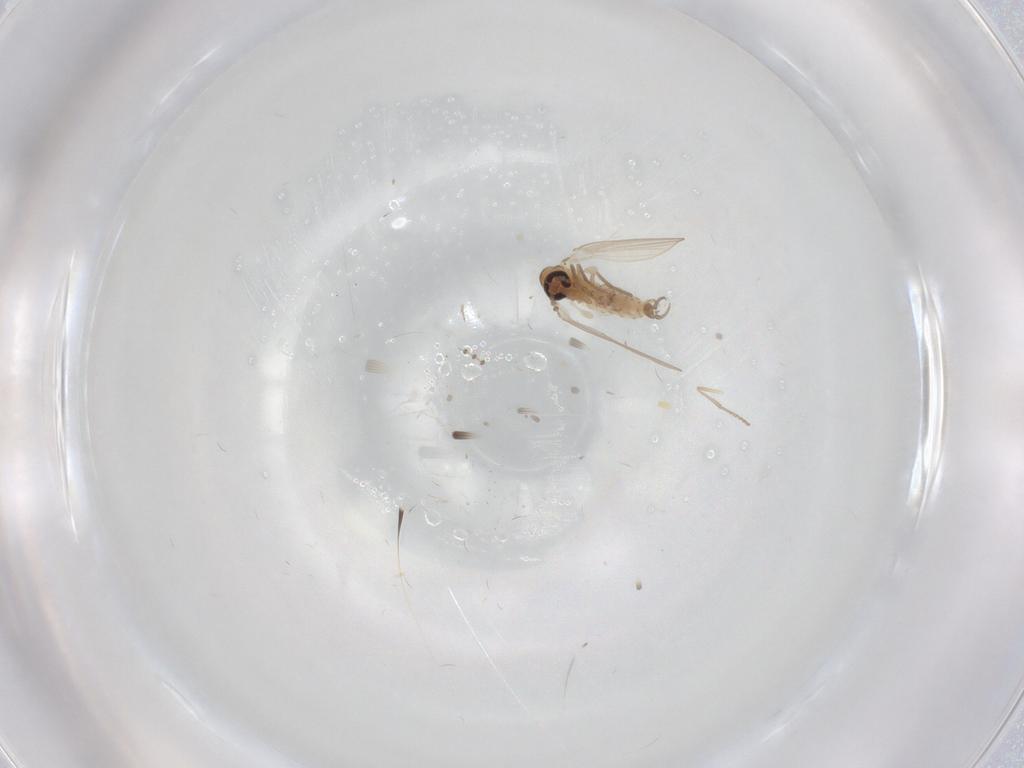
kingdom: Animalia
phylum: Arthropoda
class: Insecta
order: Diptera
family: Psychodidae
